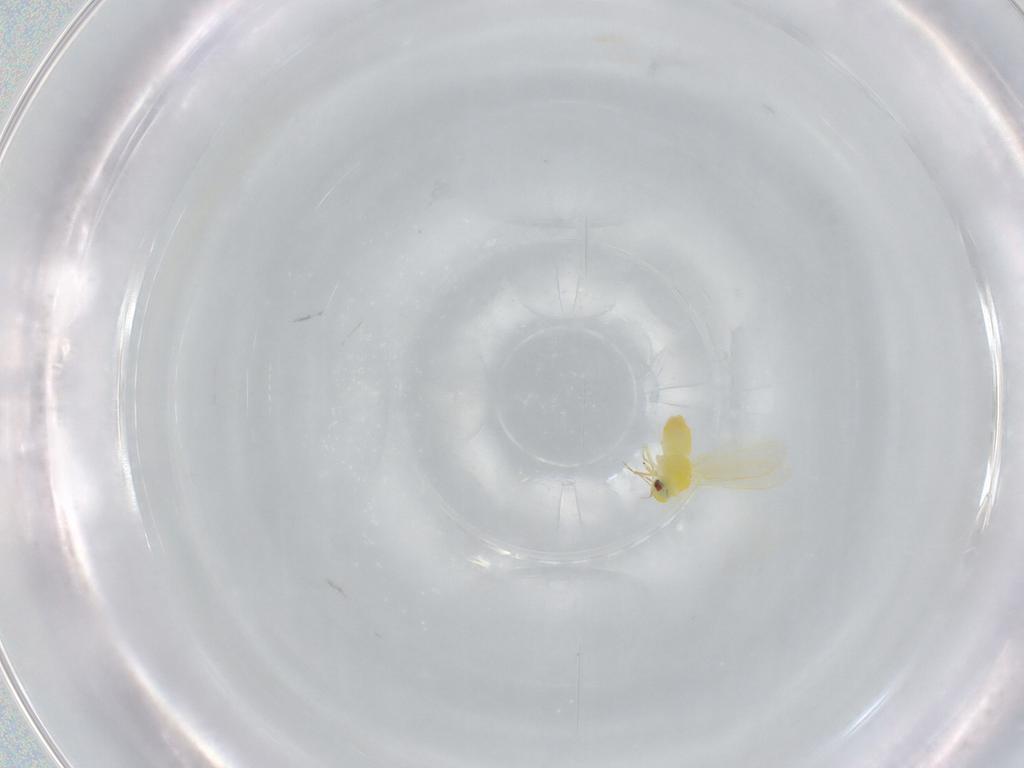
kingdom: Animalia
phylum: Arthropoda
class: Insecta
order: Hemiptera
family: Aleyrodidae
